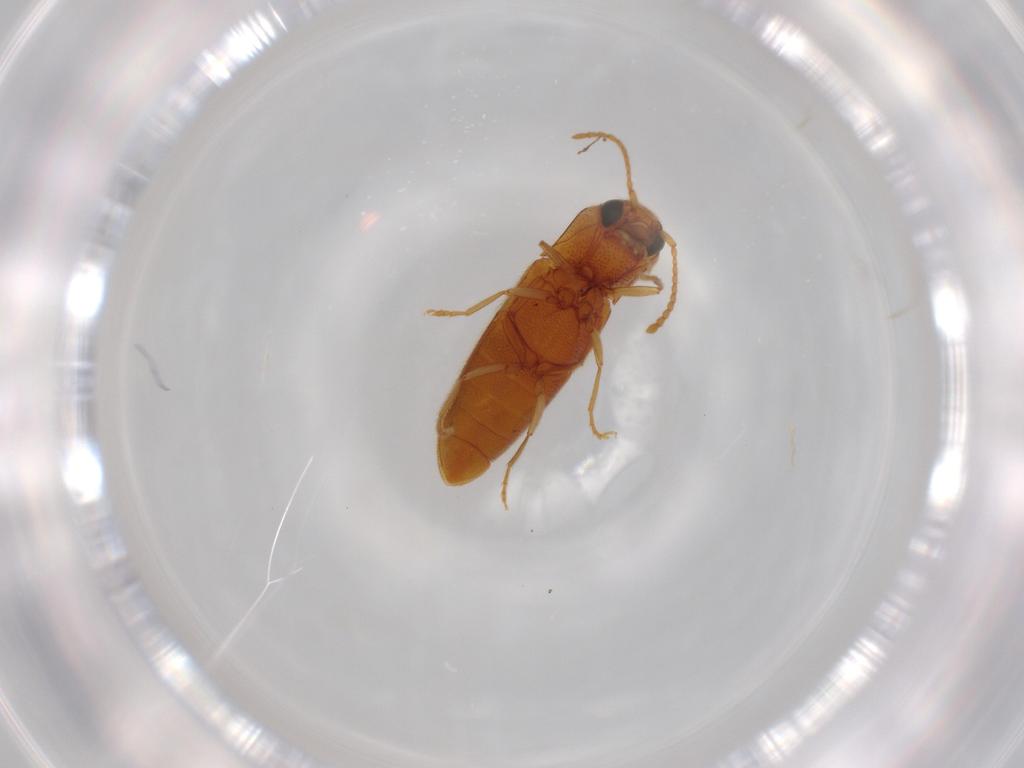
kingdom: Animalia
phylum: Arthropoda
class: Insecta
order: Coleoptera
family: Elateridae
